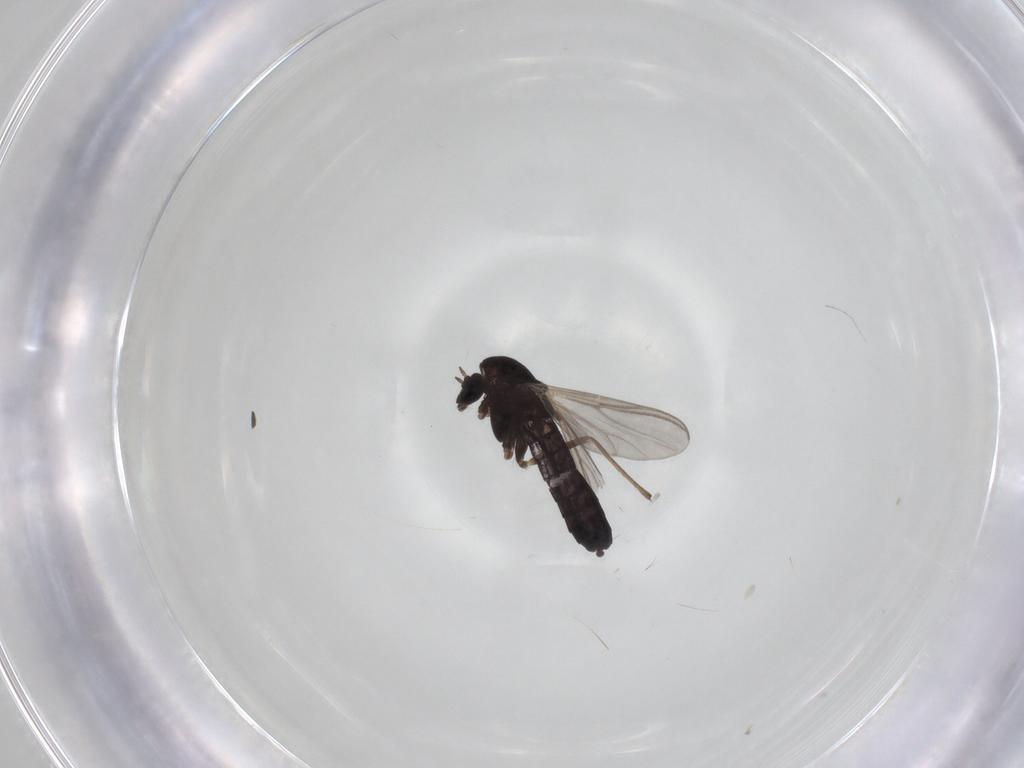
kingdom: Animalia
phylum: Arthropoda
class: Insecta
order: Diptera
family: Chironomidae
